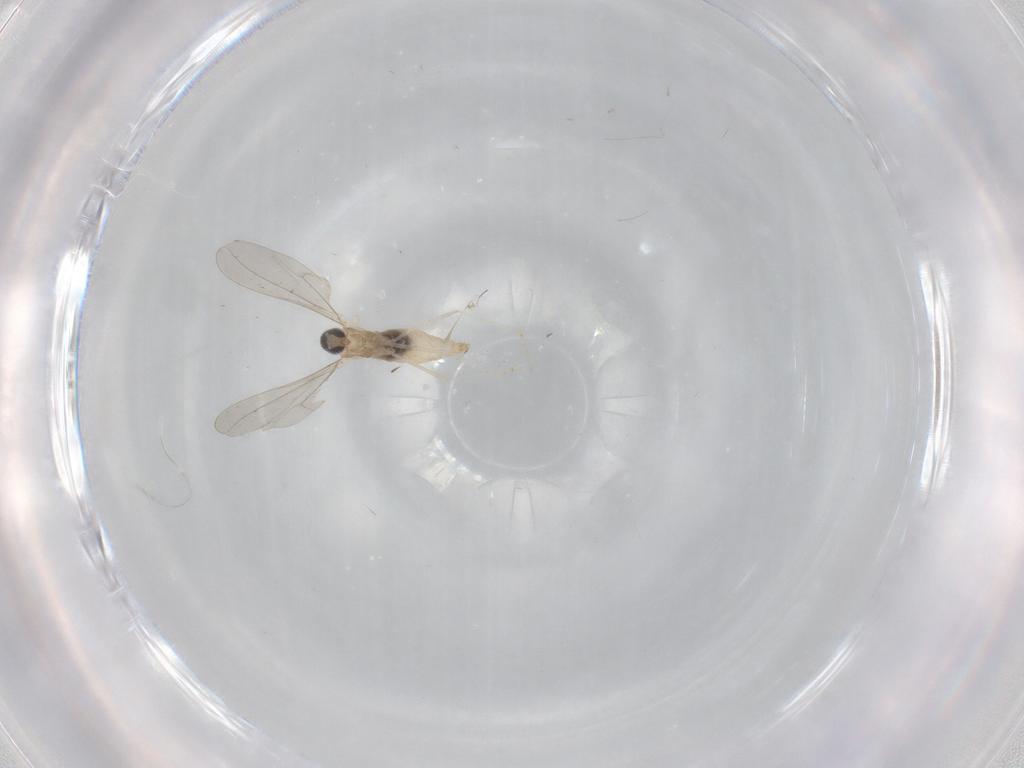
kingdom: Animalia
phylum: Arthropoda
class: Insecta
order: Diptera
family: Cecidomyiidae
